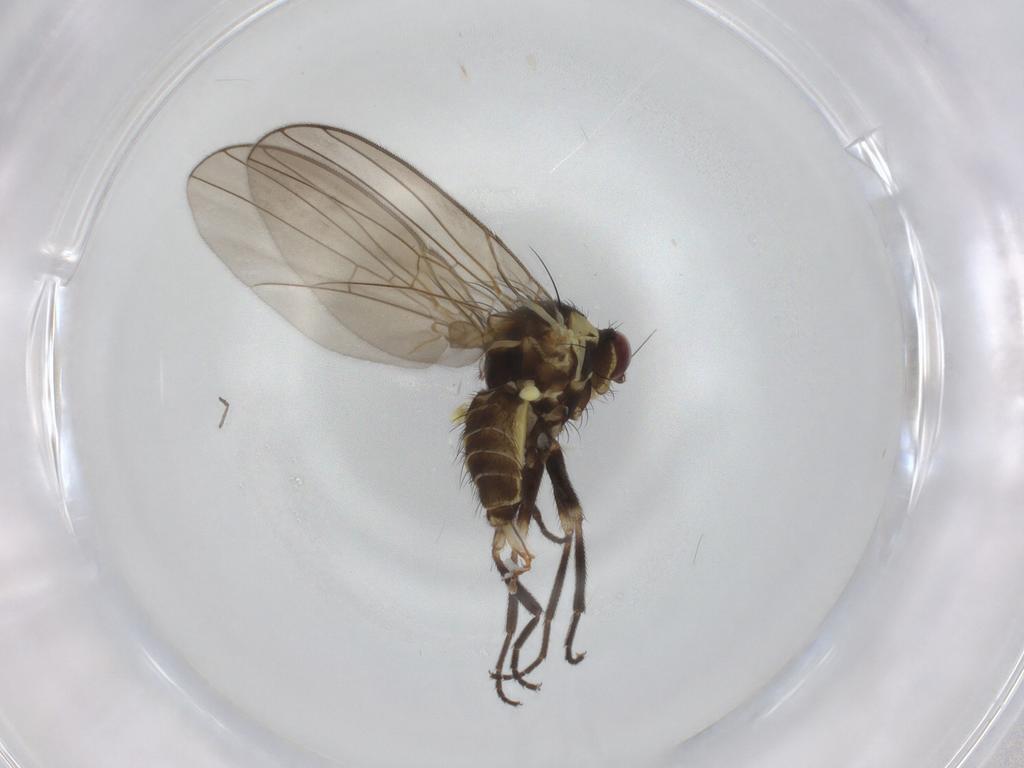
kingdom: Animalia
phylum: Arthropoda
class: Insecta
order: Diptera
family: Agromyzidae
